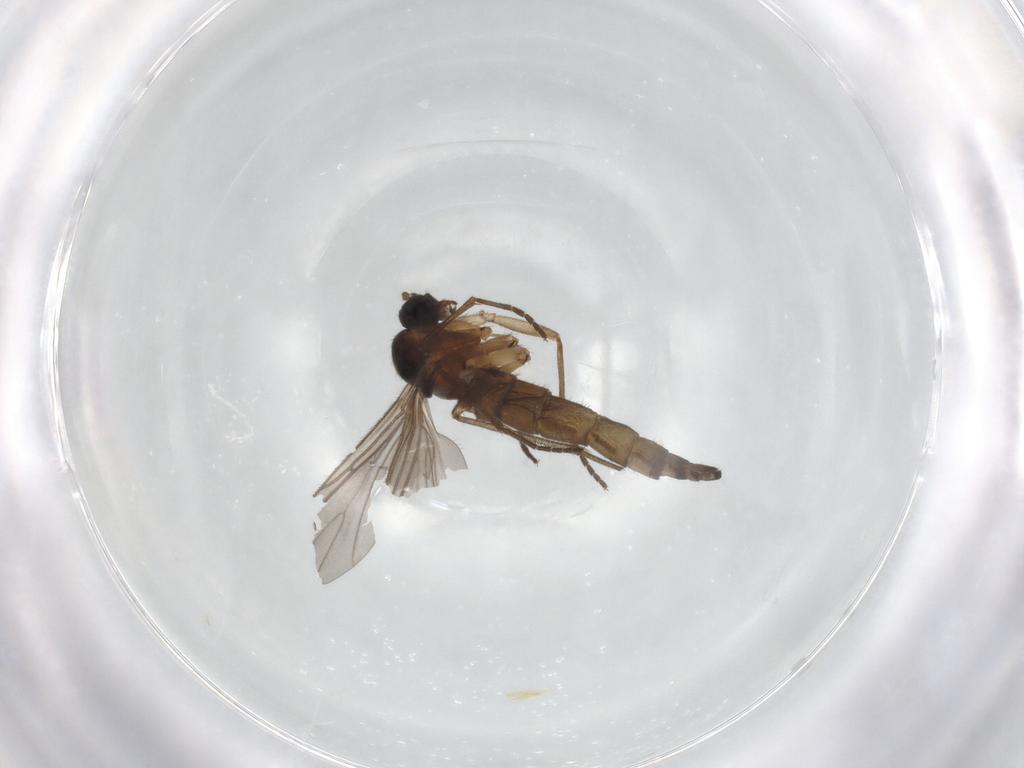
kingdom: Animalia
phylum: Arthropoda
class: Insecta
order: Diptera
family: Sciaridae
